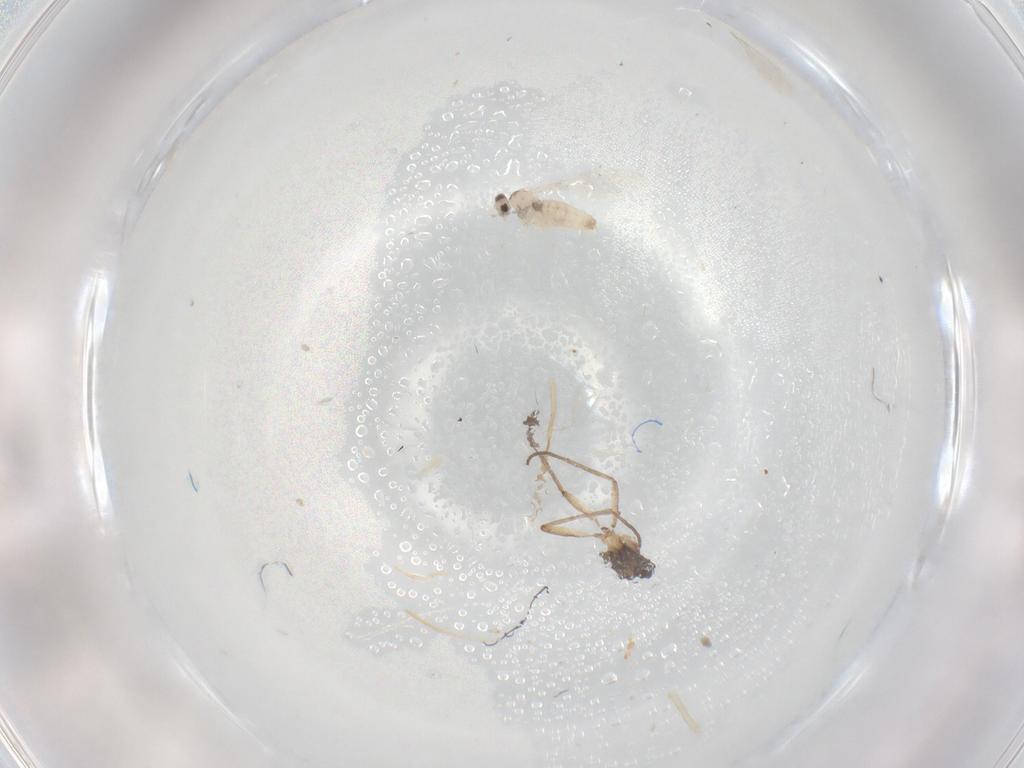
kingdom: Animalia
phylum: Arthropoda
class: Insecta
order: Diptera
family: Cecidomyiidae
